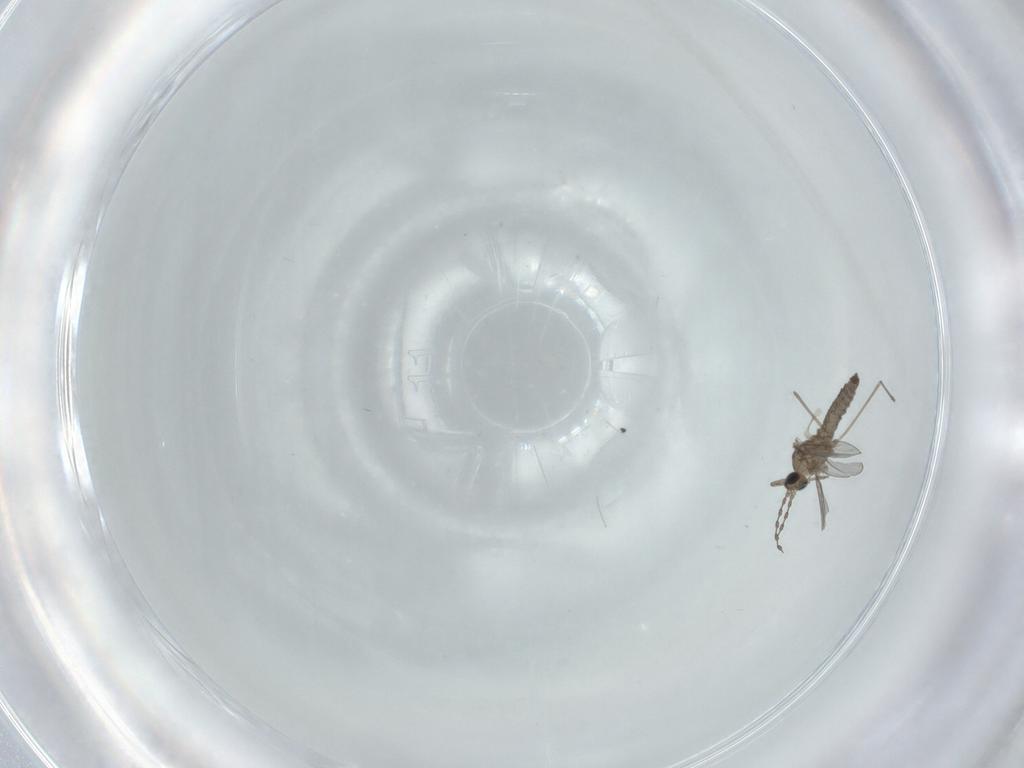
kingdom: Animalia
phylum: Arthropoda
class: Insecta
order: Diptera
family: Cecidomyiidae
